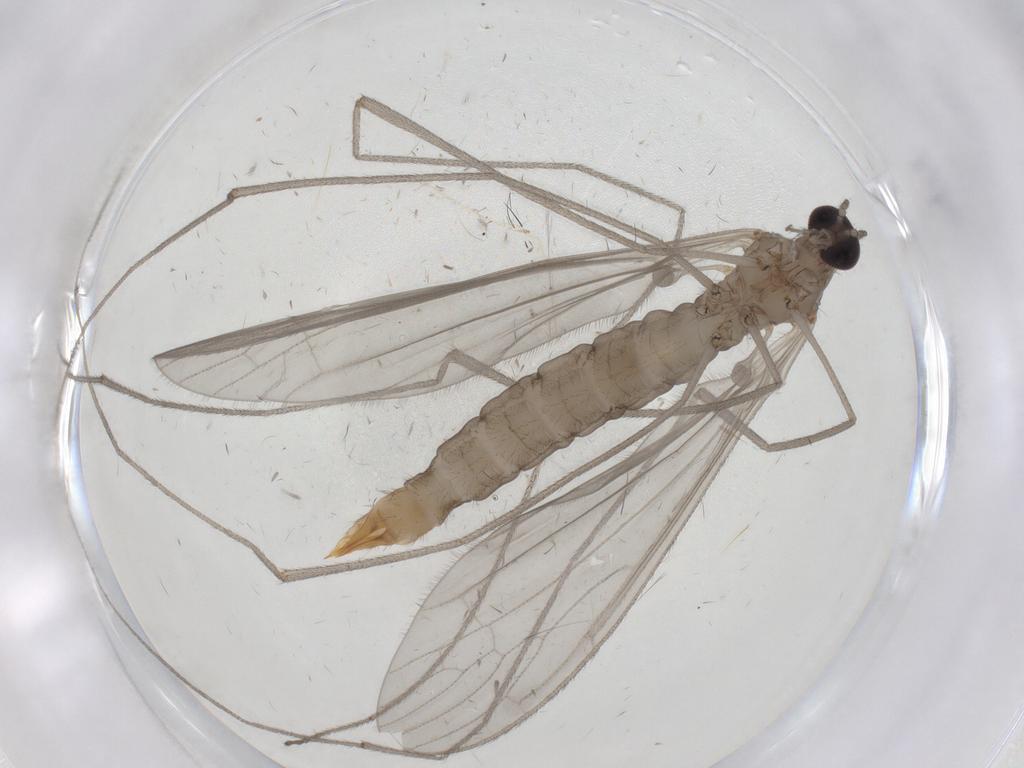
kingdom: Animalia
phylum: Arthropoda
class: Insecta
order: Diptera
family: Limoniidae
